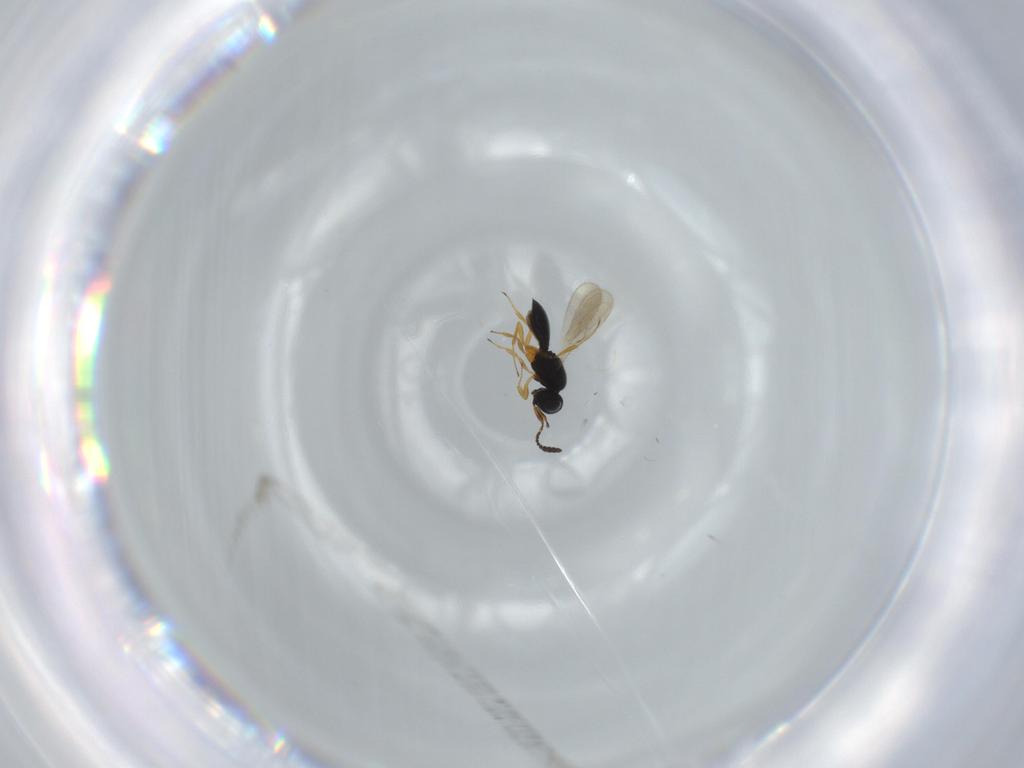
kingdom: Animalia
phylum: Arthropoda
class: Insecta
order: Hymenoptera
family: Scelionidae
